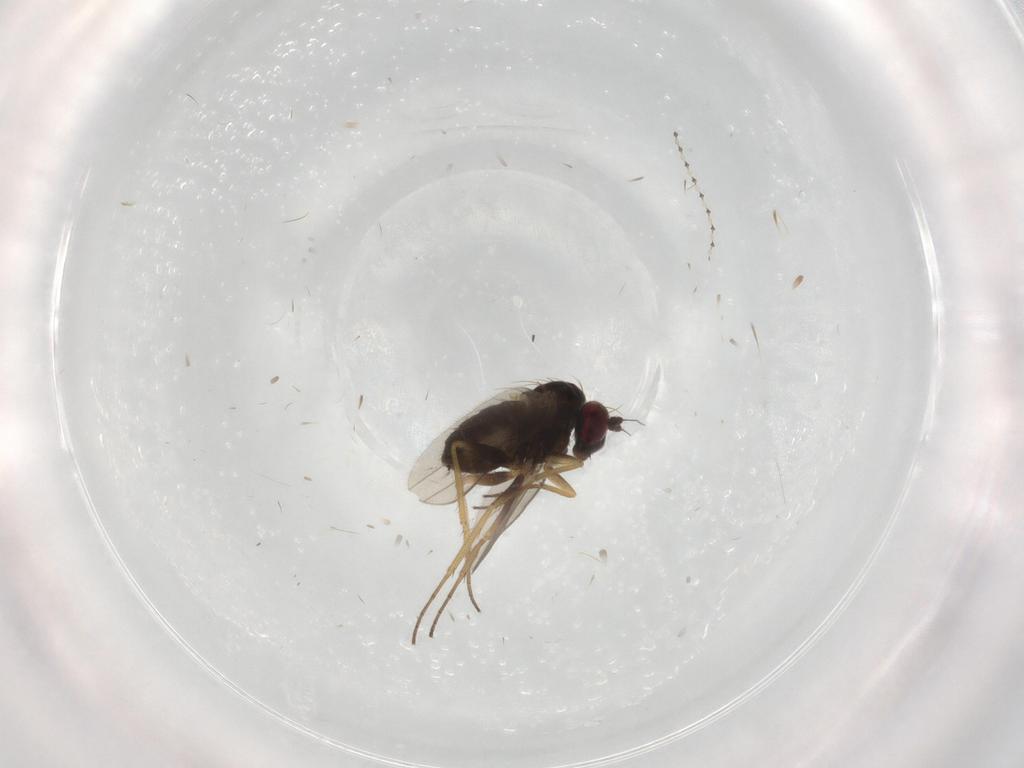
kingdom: Animalia
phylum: Arthropoda
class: Insecta
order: Diptera
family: Cecidomyiidae
